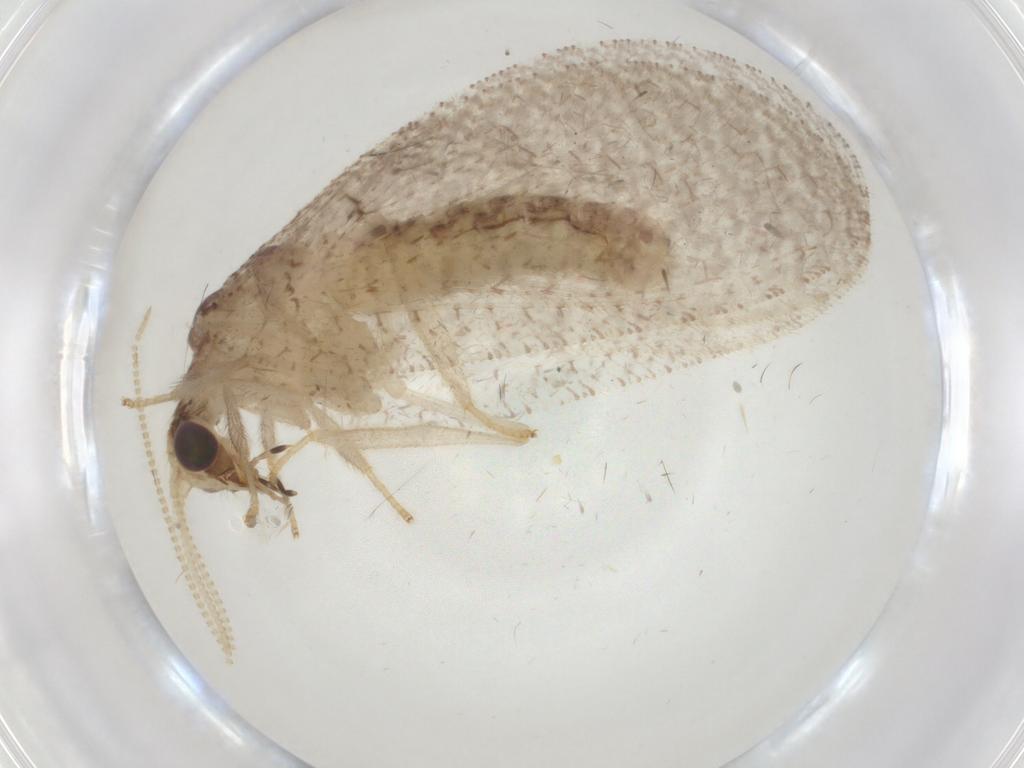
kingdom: Animalia
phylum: Arthropoda
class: Insecta
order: Neuroptera
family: Hemerobiidae
